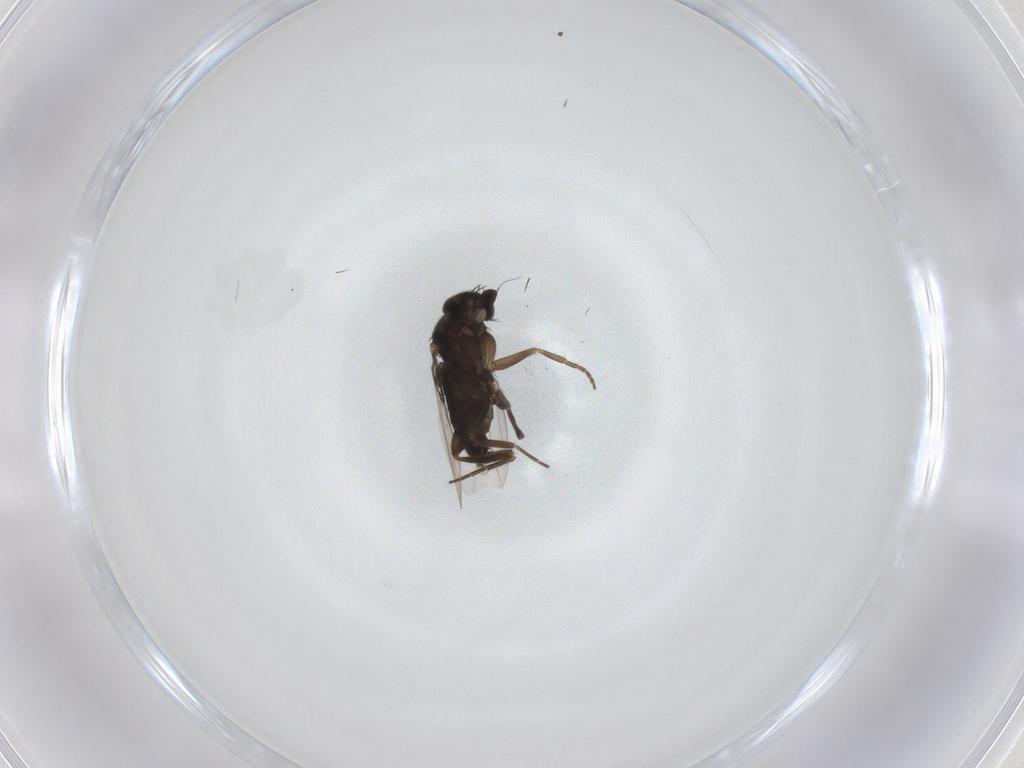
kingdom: Animalia
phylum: Arthropoda
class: Insecta
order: Diptera
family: Cecidomyiidae
